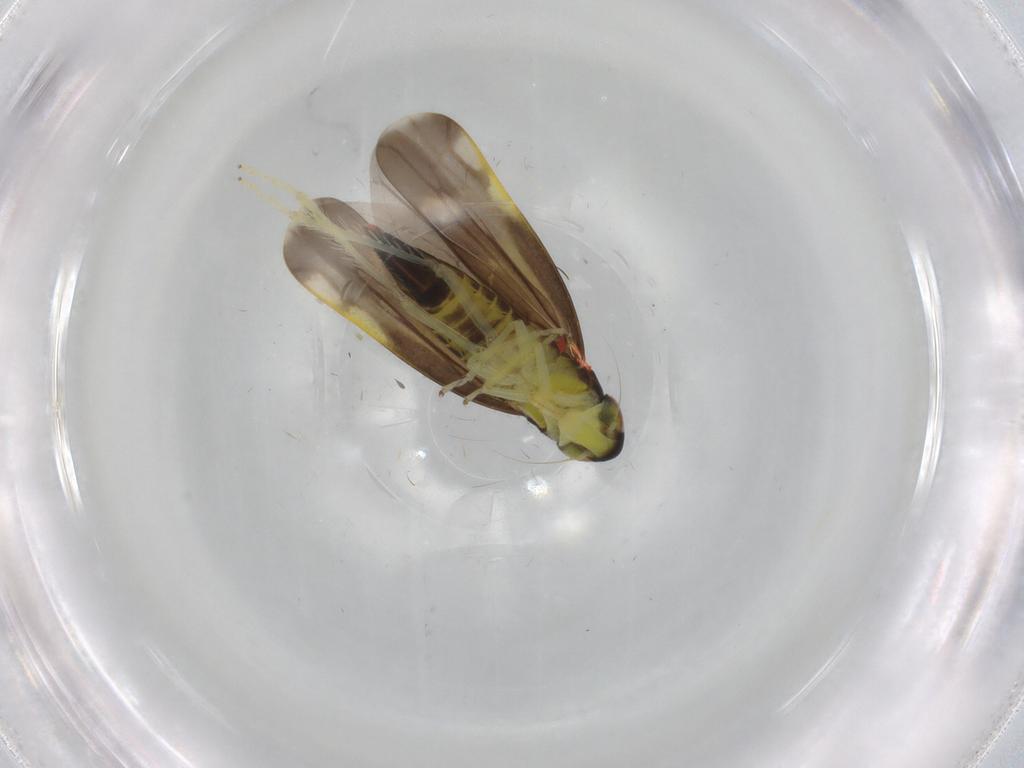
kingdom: Animalia
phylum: Arthropoda
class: Insecta
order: Hemiptera
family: Cicadellidae
